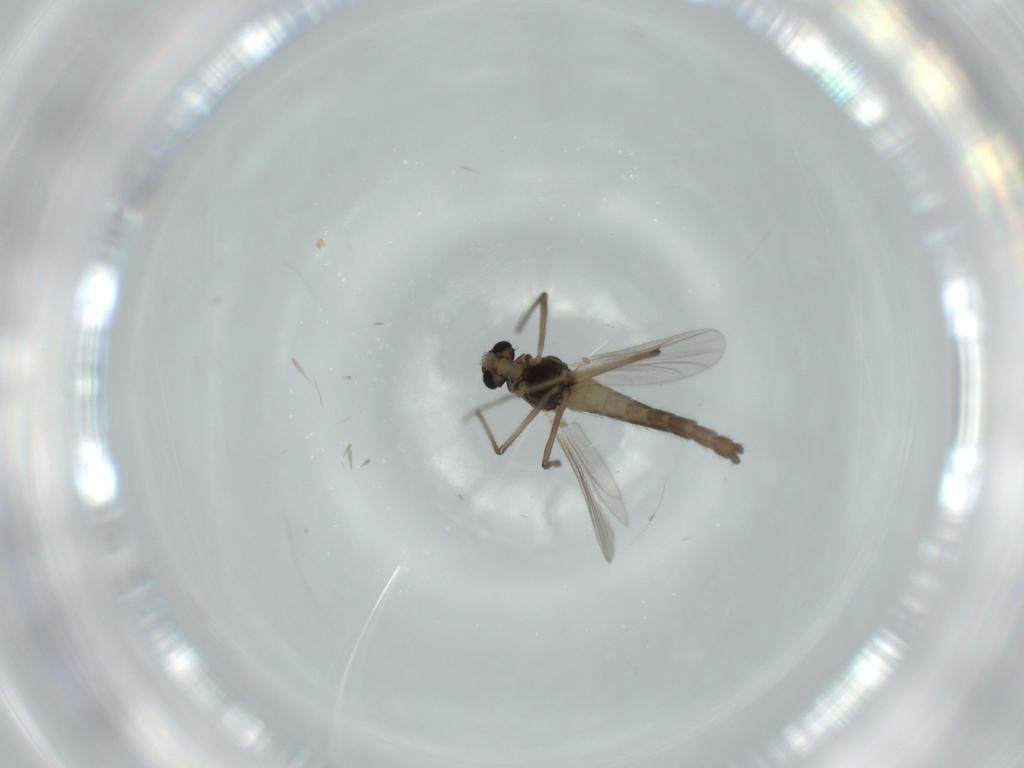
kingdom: Animalia
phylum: Arthropoda
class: Insecta
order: Diptera
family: Chironomidae
